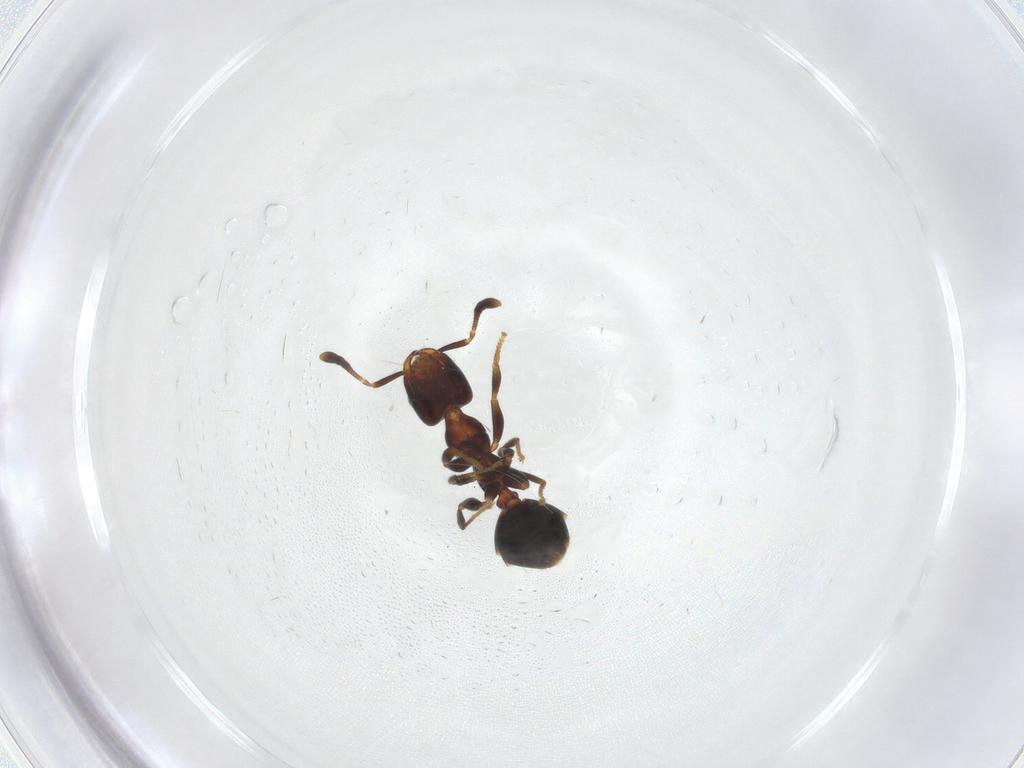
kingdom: Animalia
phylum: Arthropoda
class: Insecta
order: Hymenoptera
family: Formicidae
